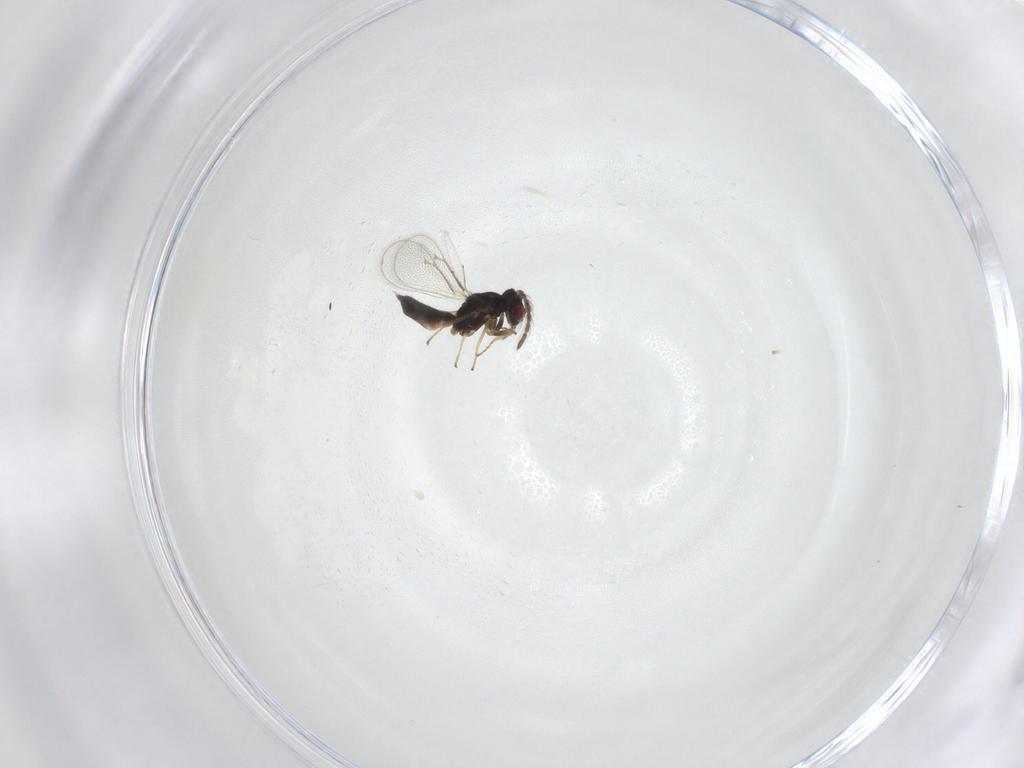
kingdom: Animalia
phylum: Arthropoda
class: Insecta
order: Hymenoptera
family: Eulophidae
